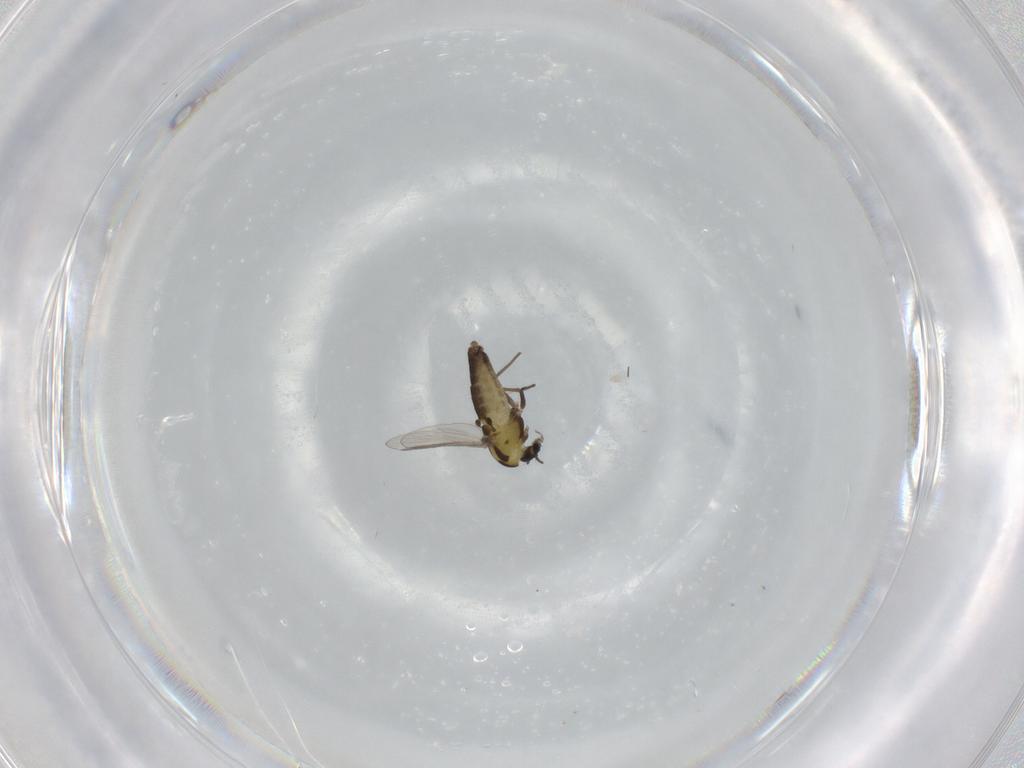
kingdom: Animalia
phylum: Arthropoda
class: Insecta
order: Diptera
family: Chironomidae
